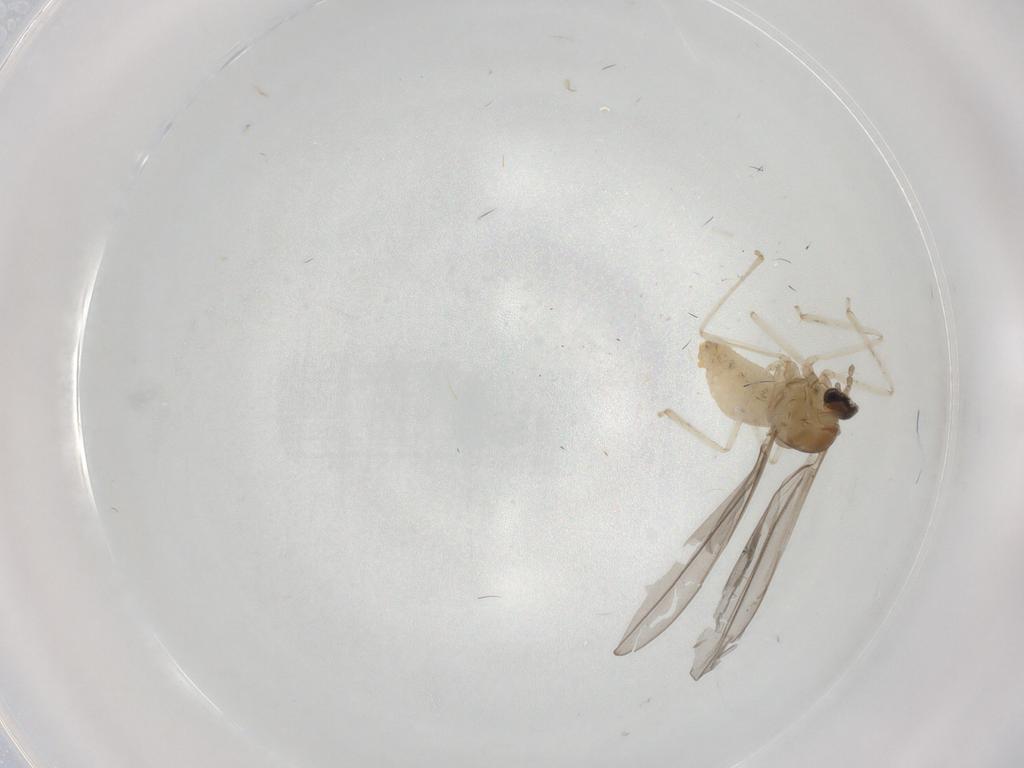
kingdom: Animalia
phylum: Arthropoda
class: Insecta
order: Diptera
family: Cecidomyiidae
